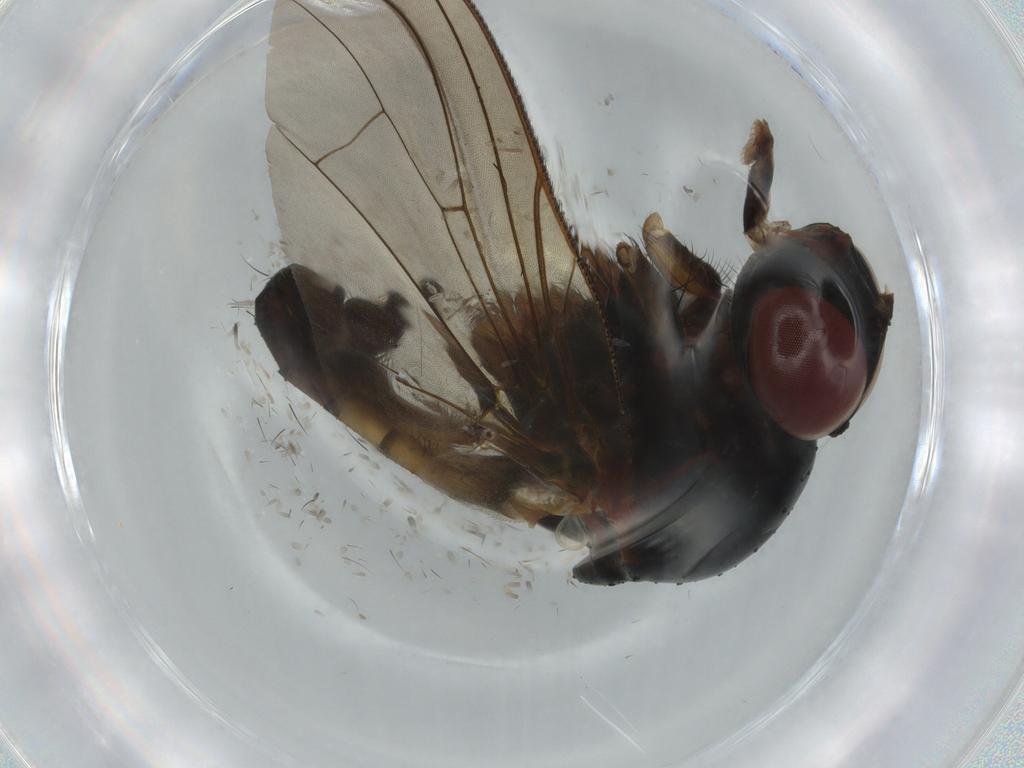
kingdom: Animalia
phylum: Arthropoda
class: Insecta
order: Diptera
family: Anthomyiidae
